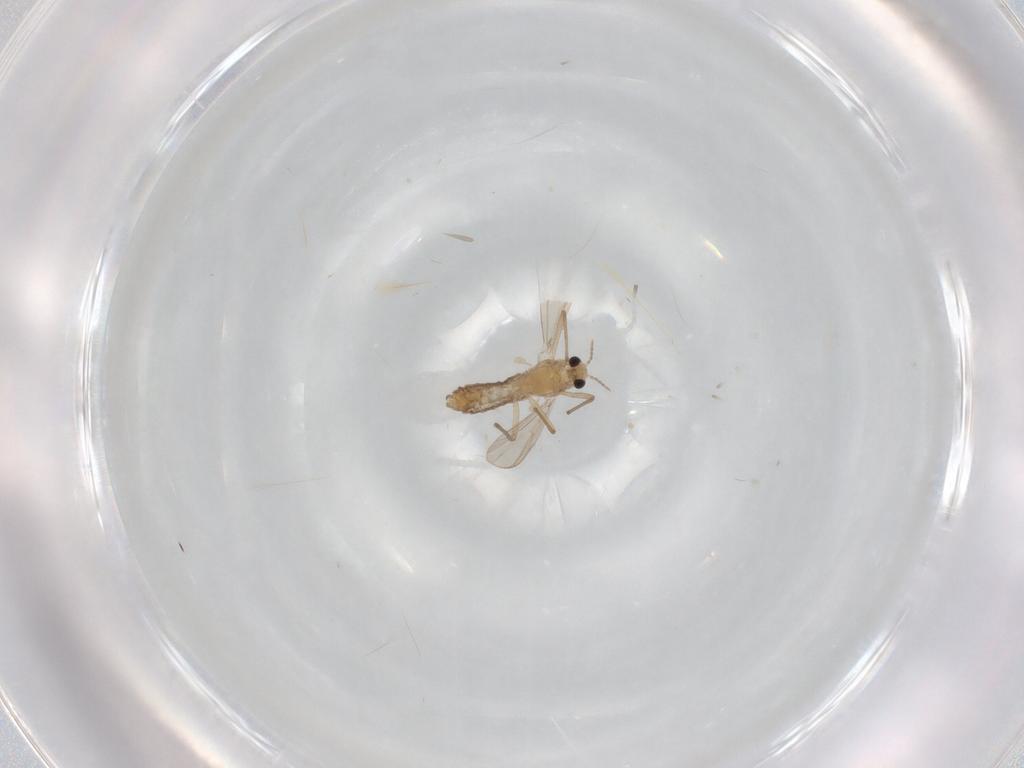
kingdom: Animalia
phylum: Arthropoda
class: Insecta
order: Diptera
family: Chironomidae
